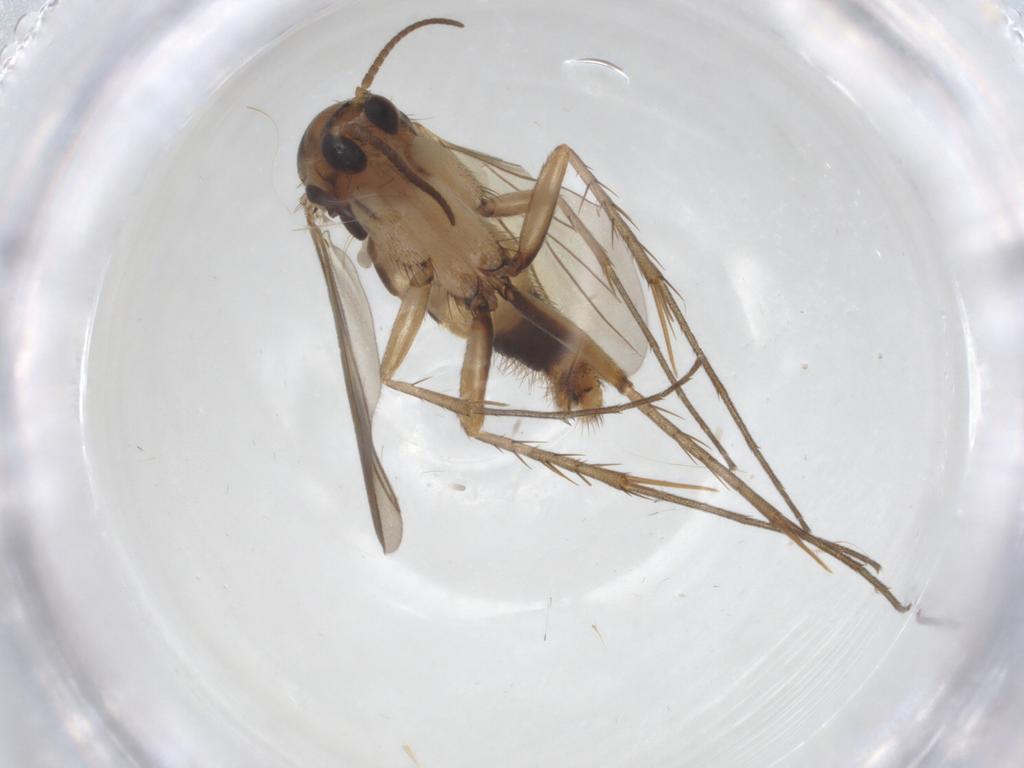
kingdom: Animalia
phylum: Arthropoda
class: Insecta
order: Diptera
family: Mycetophilidae
